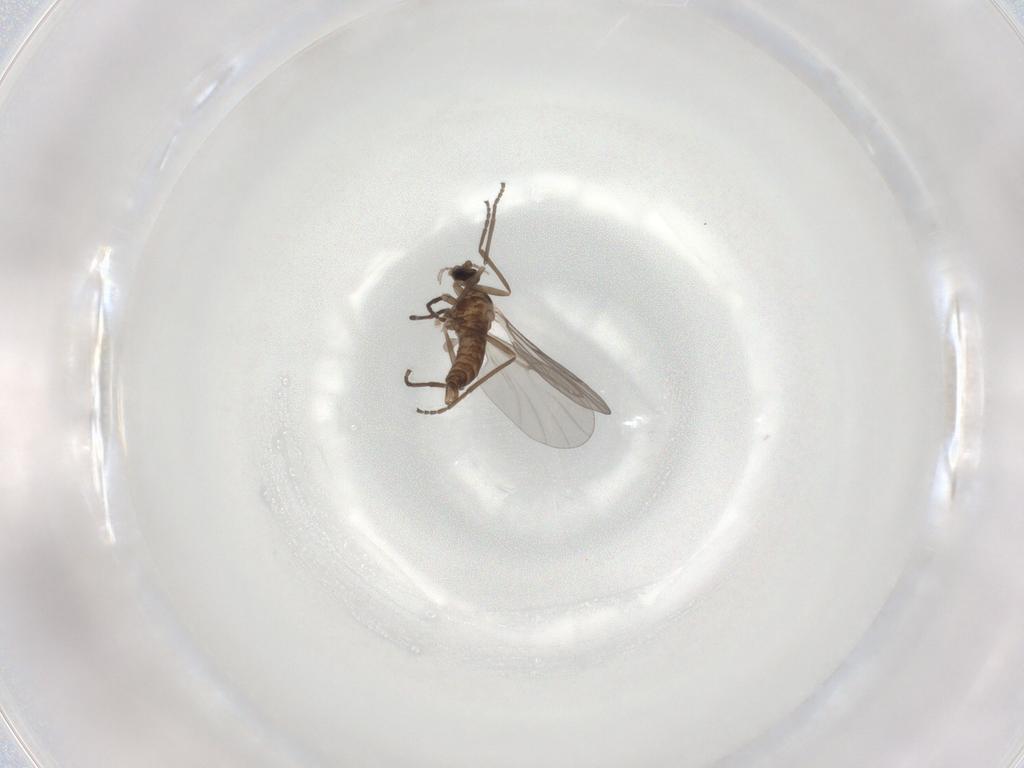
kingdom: Animalia
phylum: Arthropoda
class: Insecta
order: Diptera
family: Cecidomyiidae
